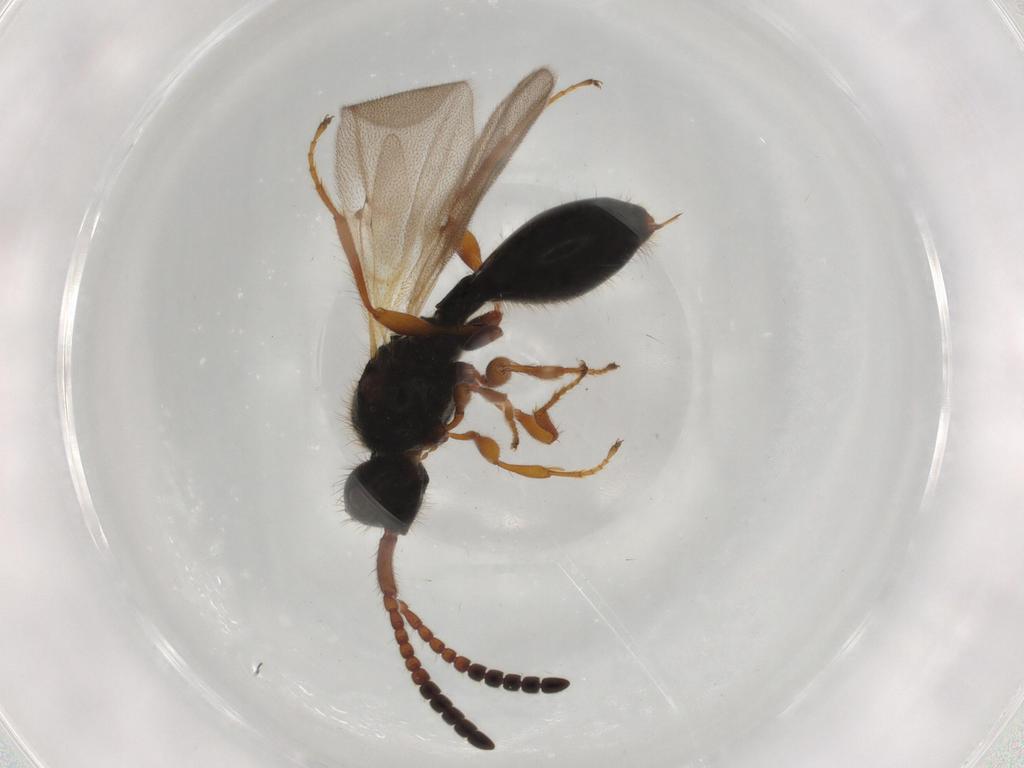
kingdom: Animalia
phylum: Arthropoda
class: Insecta
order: Hymenoptera
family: Diapriidae
